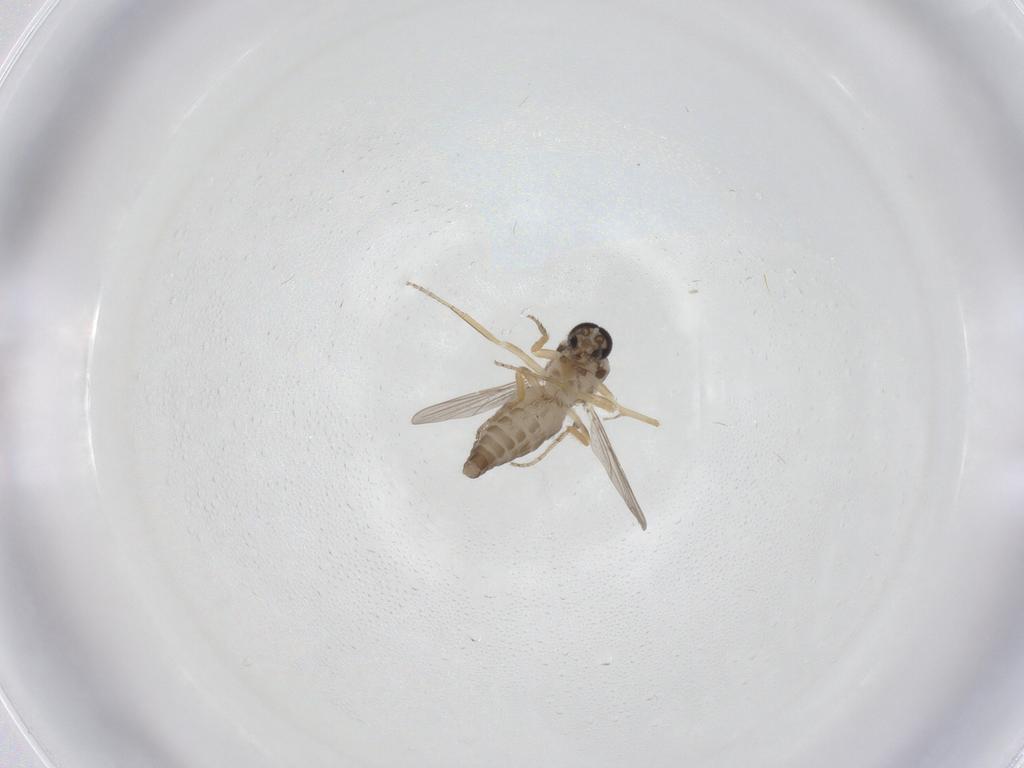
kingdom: Animalia
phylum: Arthropoda
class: Insecta
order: Diptera
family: Ceratopogonidae
